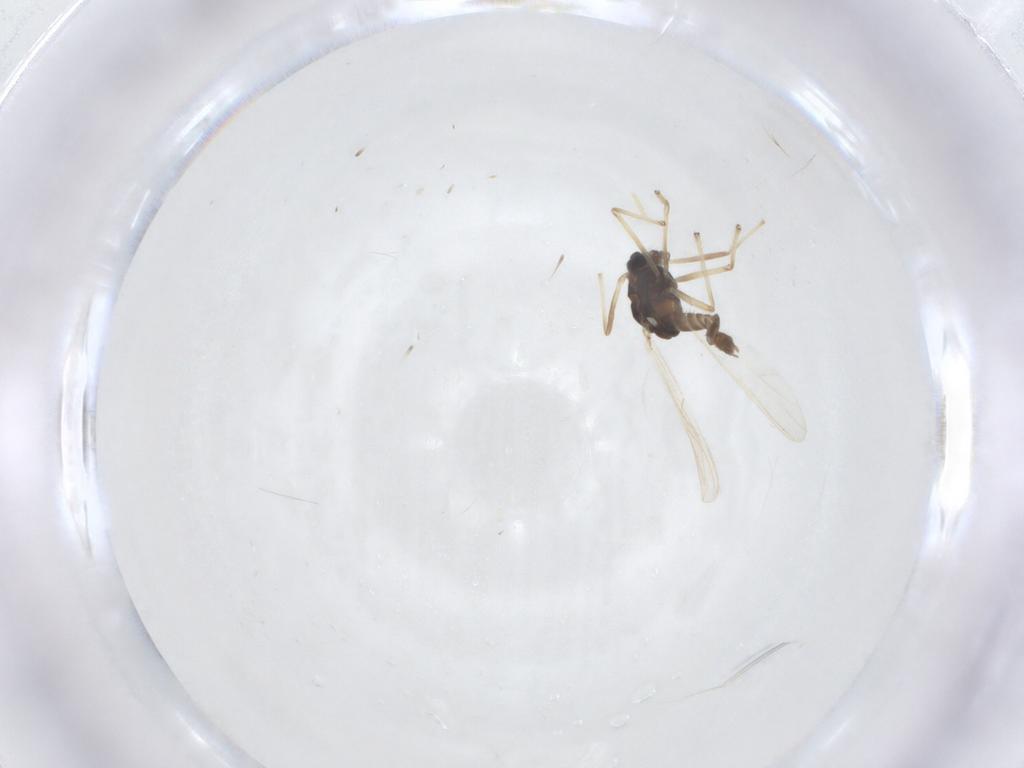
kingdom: Animalia
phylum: Arthropoda
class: Insecta
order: Diptera
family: Chironomidae
